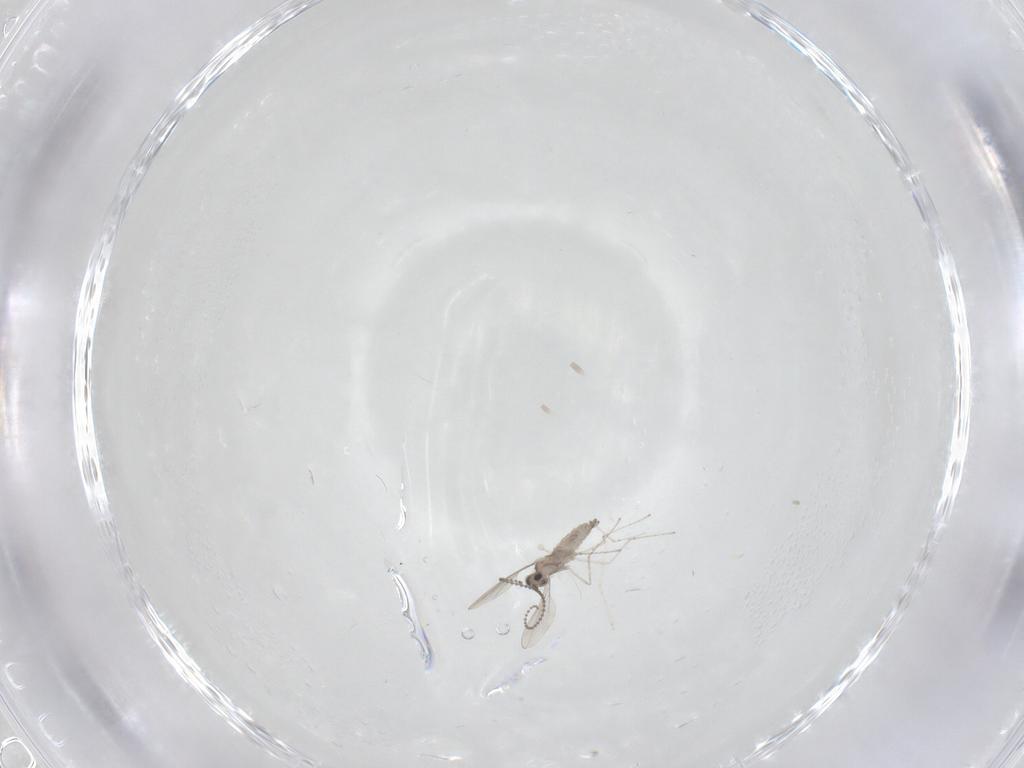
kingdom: Animalia
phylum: Arthropoda
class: Insecta
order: Diptera
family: Cecidomyiidae
